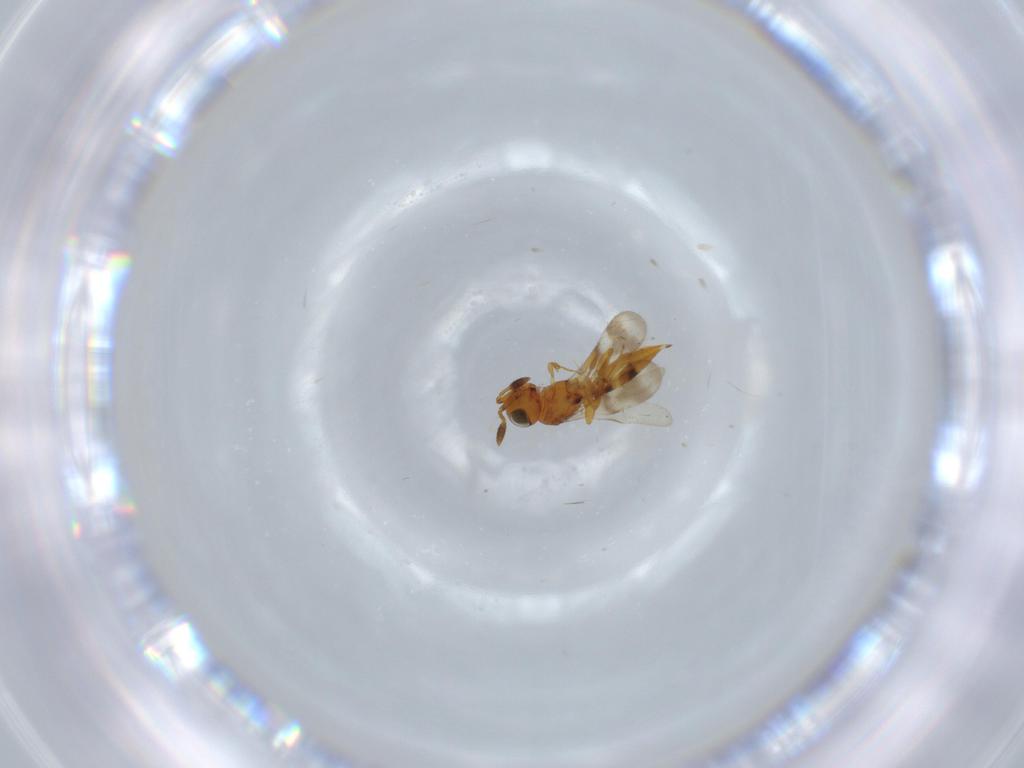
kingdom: Animalia
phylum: Arthropoda
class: Insecta
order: Hymenoptera
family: Scelionidae
